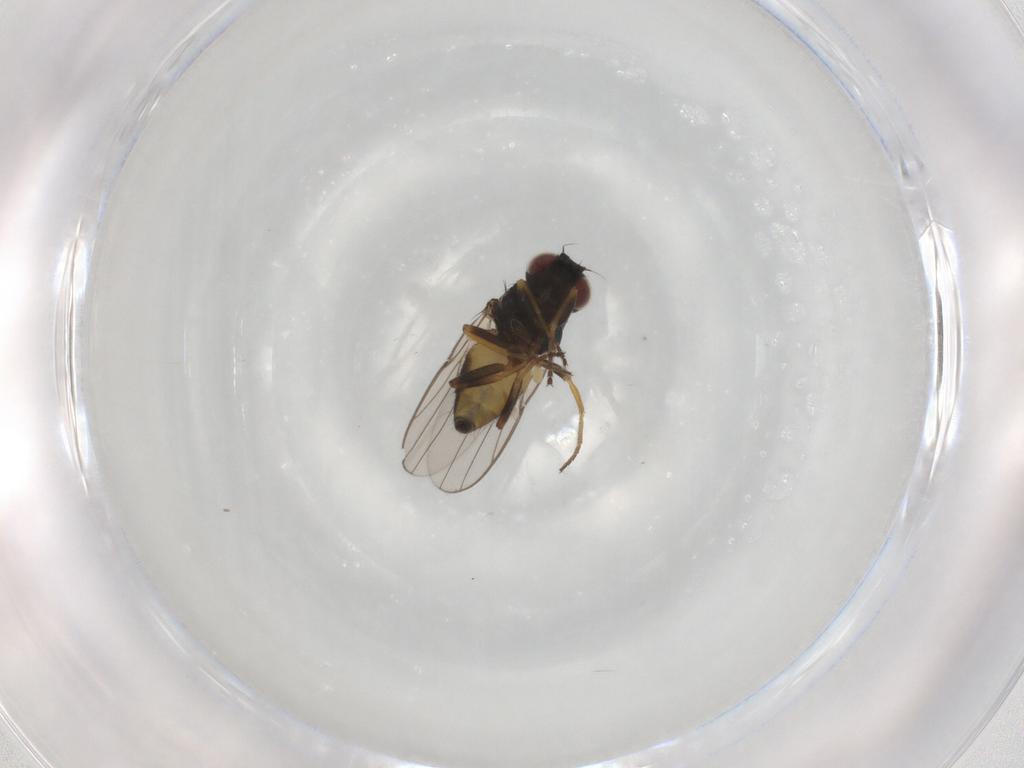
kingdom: Animalia
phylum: Arthropoda
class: Insecta
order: Diptera
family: Chloropidae
